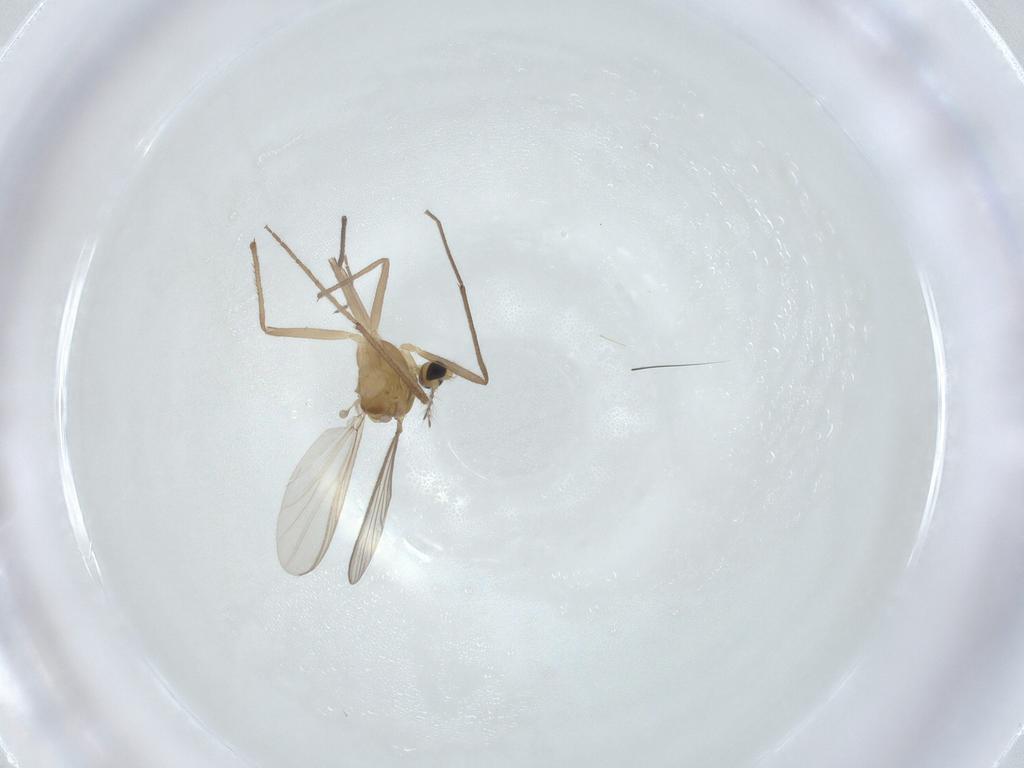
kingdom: Animalia
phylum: Arthropoda
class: Insecta
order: Diptera
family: Chironomidae
